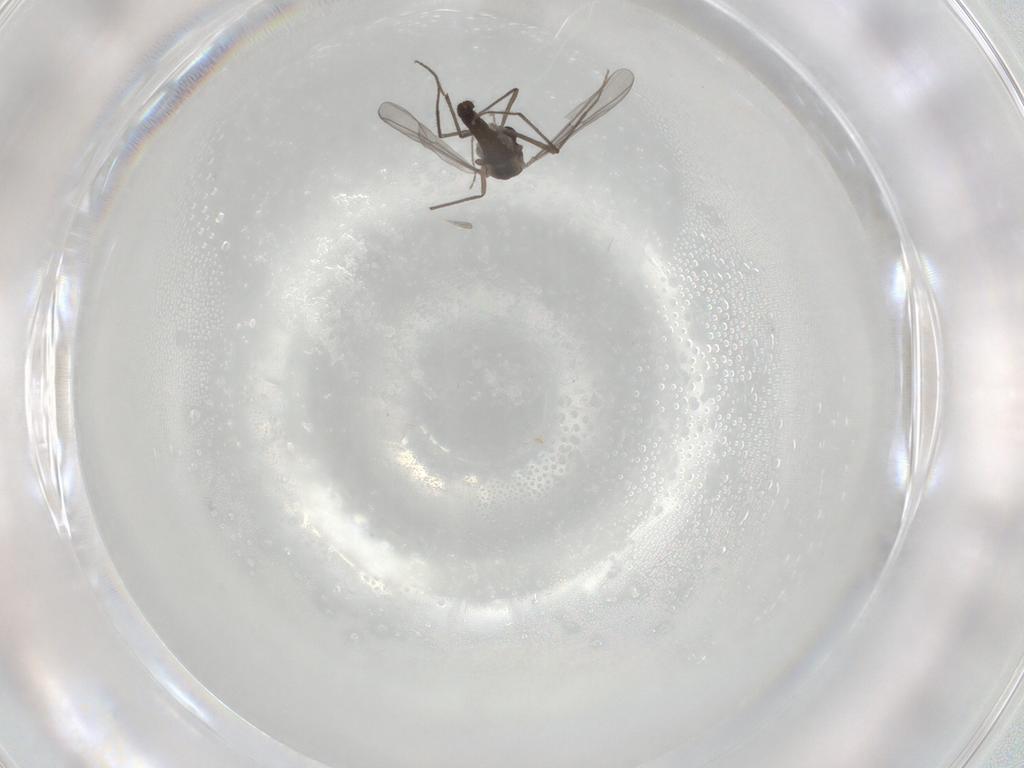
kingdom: Animalia
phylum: Arthropoda
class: Insecta
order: Diptera
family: Chironomidae
